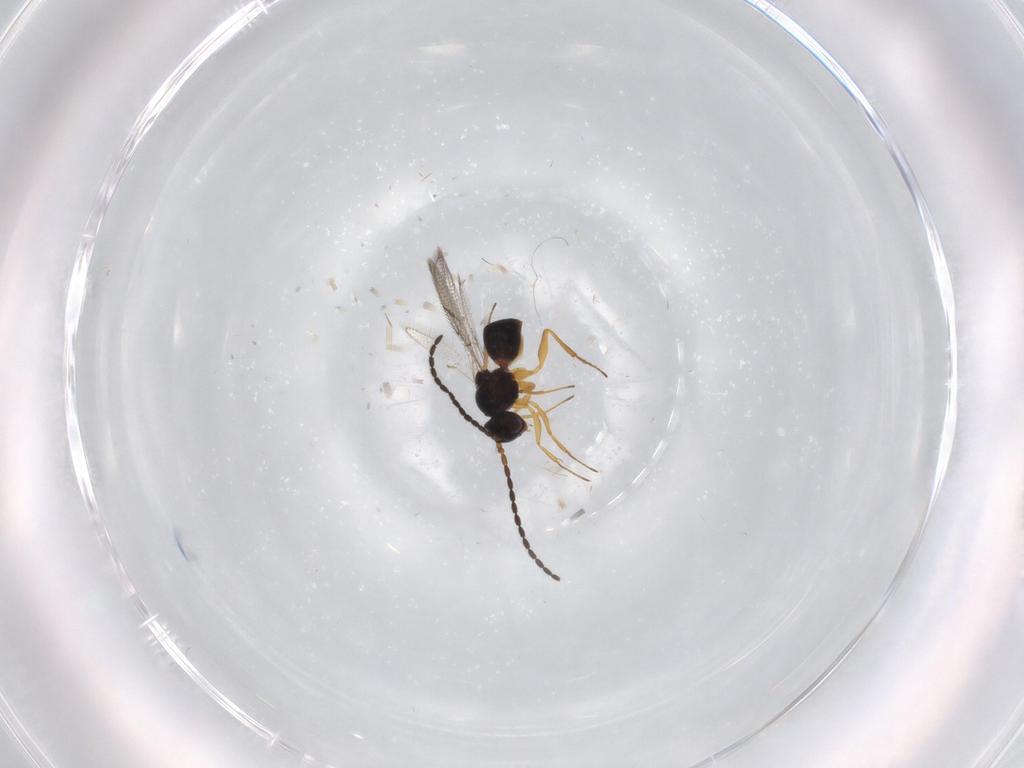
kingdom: Animalia
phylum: Arthropoda
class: Insecta
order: Hymenoptera
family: Figitidae
